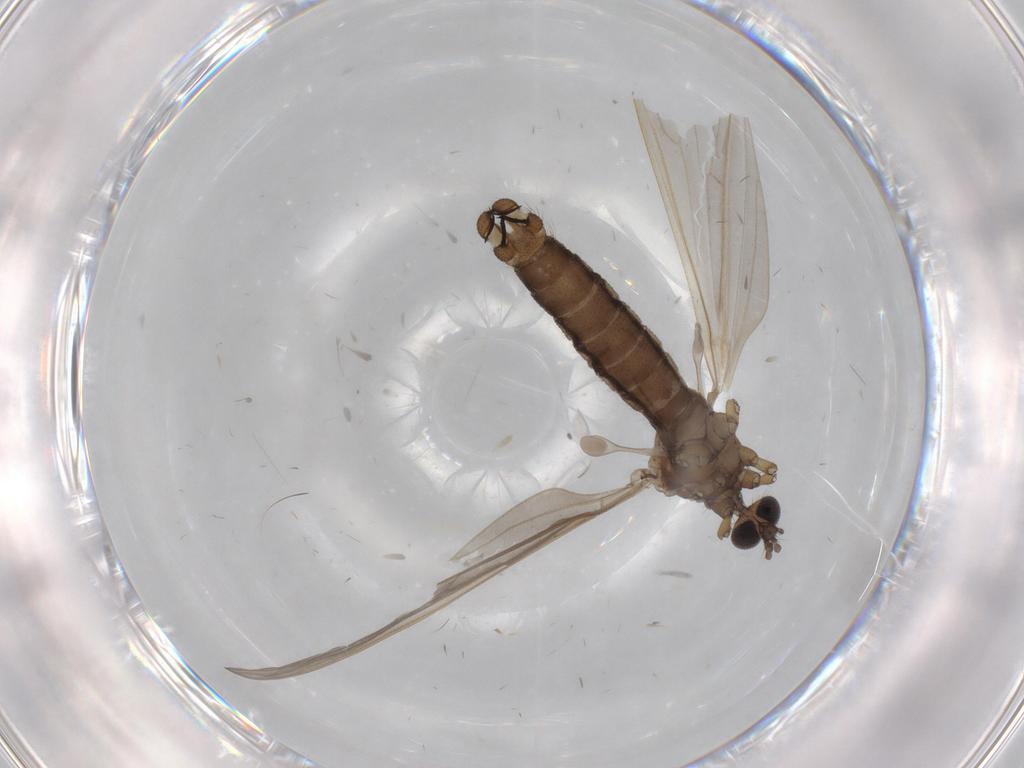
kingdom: Animalia
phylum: Arthropoda
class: Insecta
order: Diptera
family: Limoniidae
